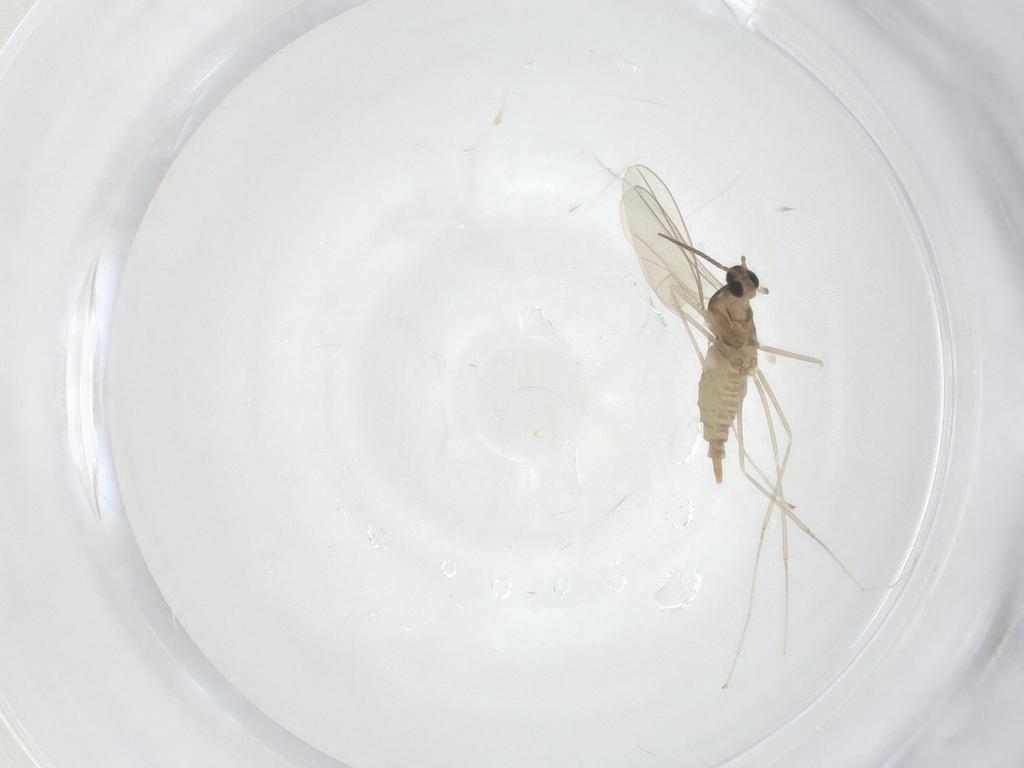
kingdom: Animalia
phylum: Arthropoda
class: Insecta
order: Diptera
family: Cecidomyiidae
